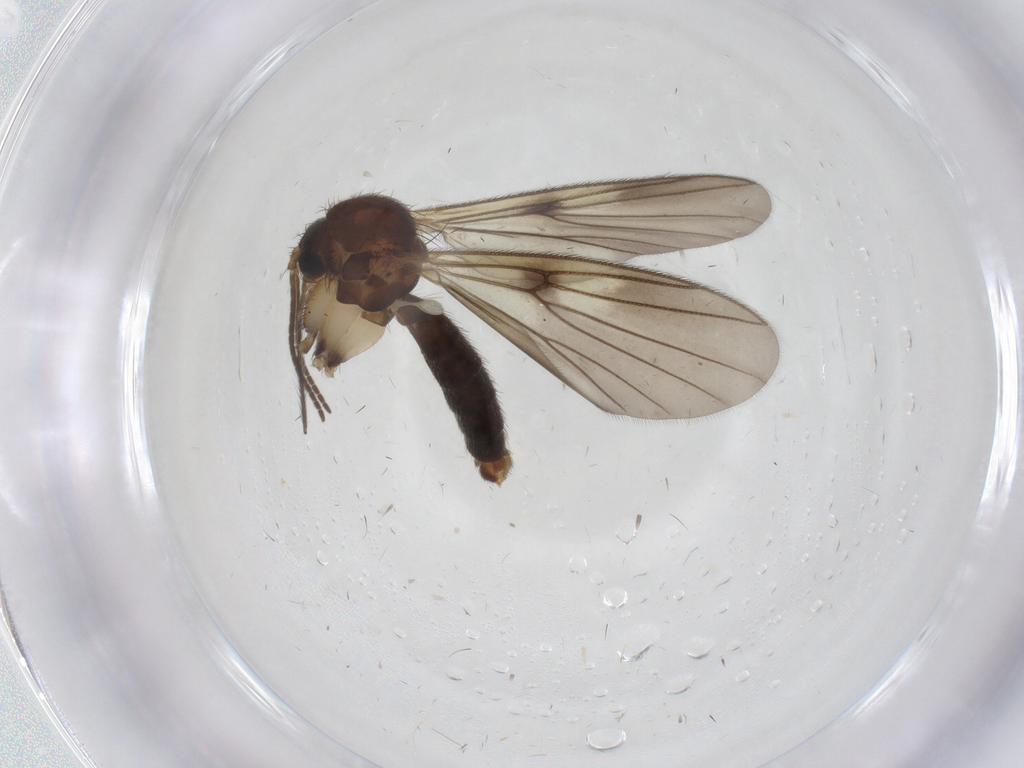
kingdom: Animalia
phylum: Arthropoda
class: Insecta
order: Diptera
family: Chironomidae
